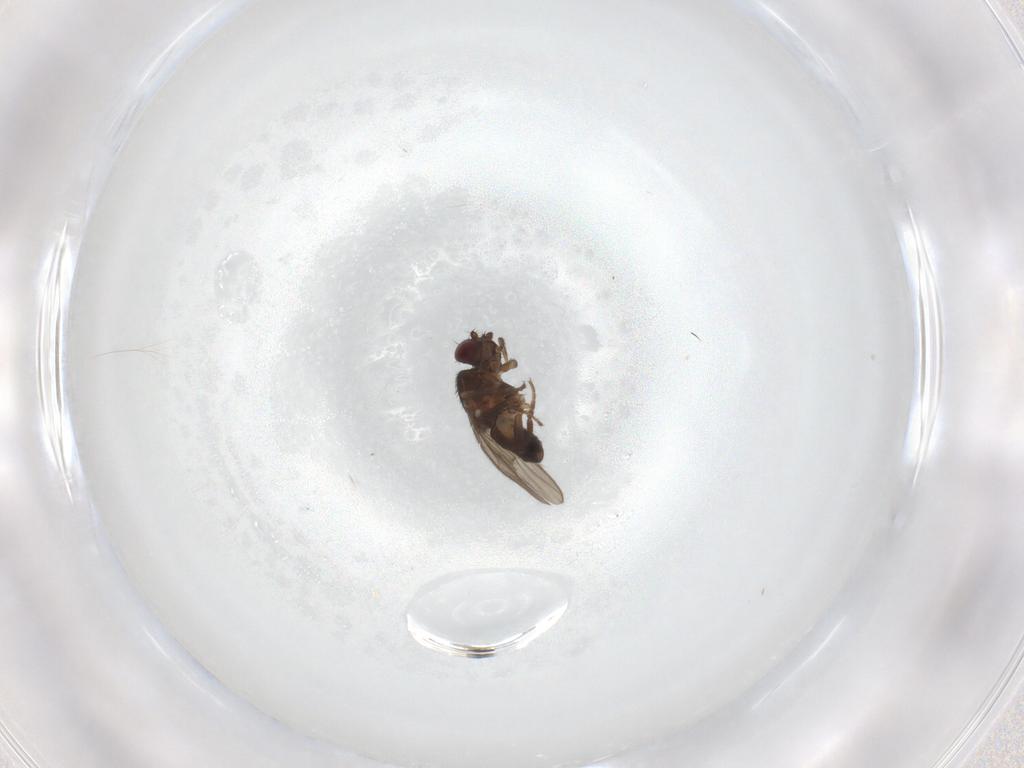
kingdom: Animalia
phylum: Arthropoda
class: Insecta
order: Diptera
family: Sphaeroceridae
